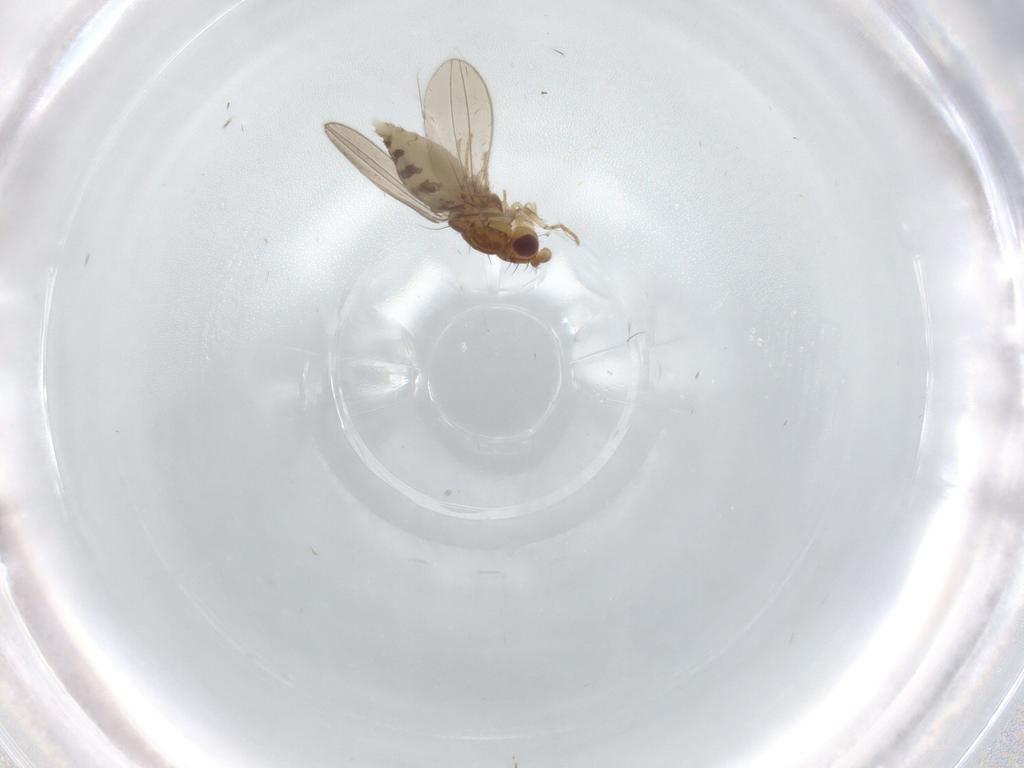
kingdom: Animalia
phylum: Arthropoda
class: Insecta
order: Diptera
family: Asteiidae
